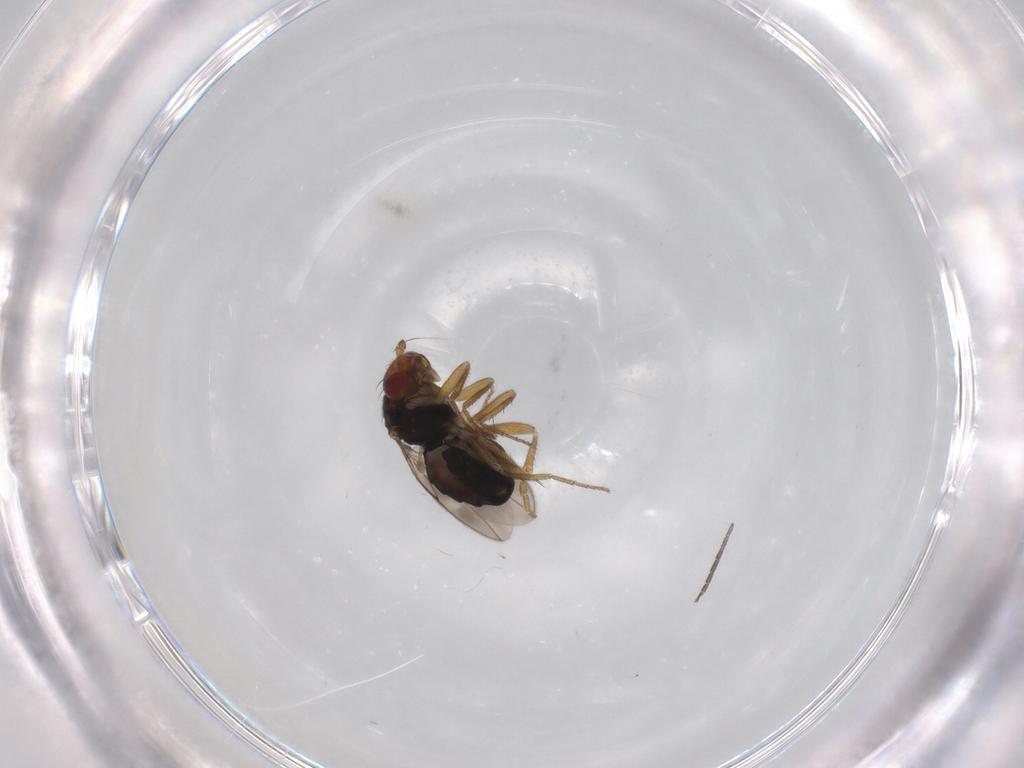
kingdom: Animalia
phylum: Arthropoda
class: Insecta
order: Diptera
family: Sphaeroceridae
